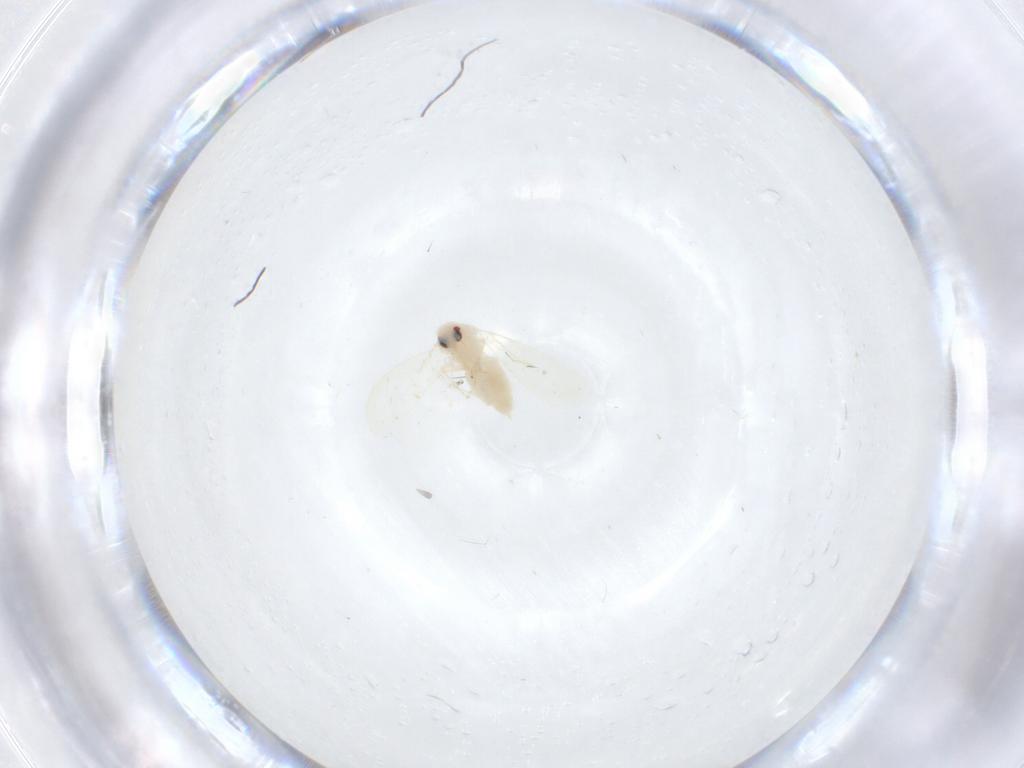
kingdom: Animalia
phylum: Arthropoda
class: Insecta
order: Hemiptera
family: Aleyrodidae
